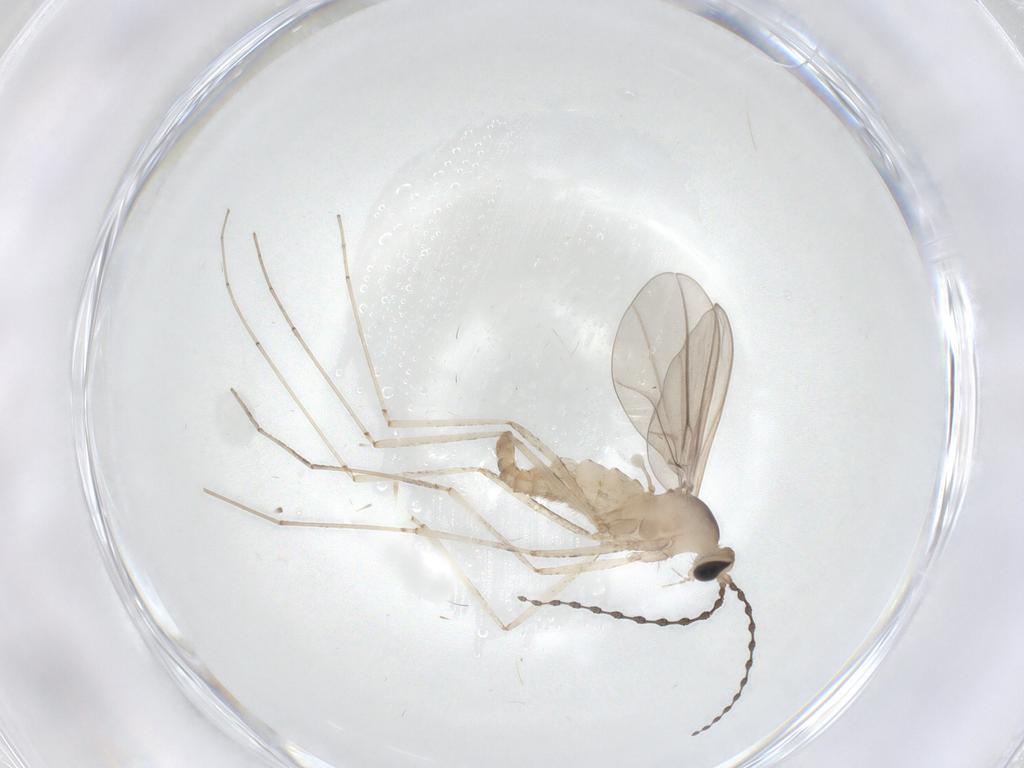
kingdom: Animalia
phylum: Arthropoda
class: Insecta
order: Diptera
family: Cecidomyiidae
